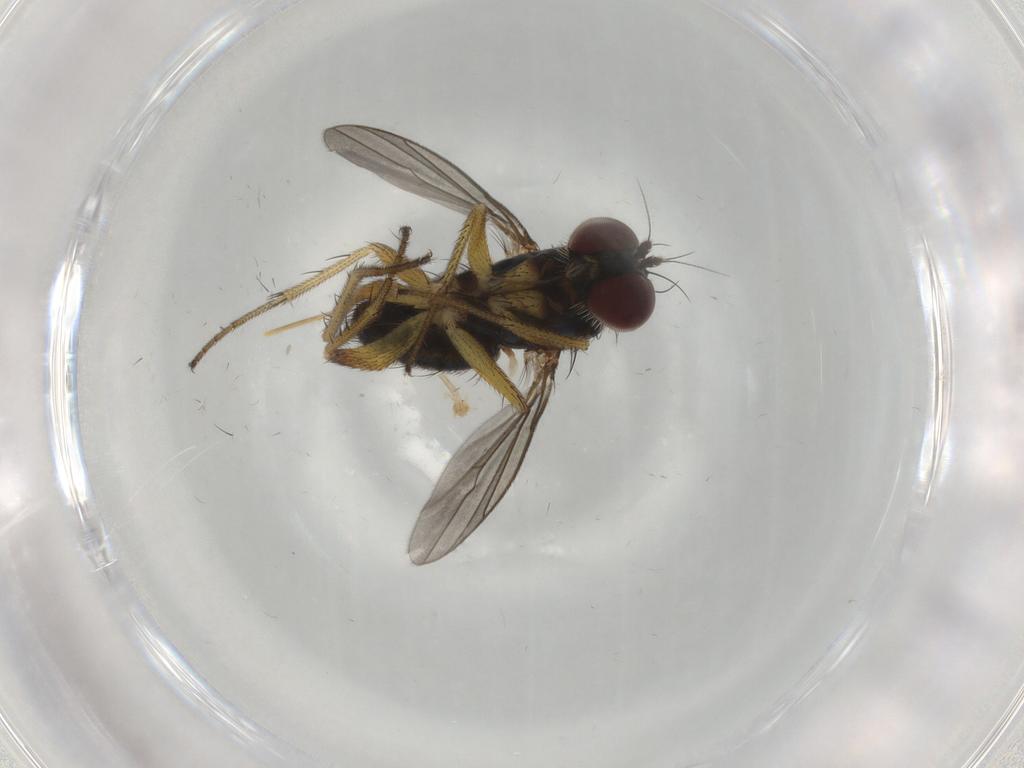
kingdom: Animalia
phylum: Arthropoda
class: Insecta
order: Diptera
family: Dolichopodidae
